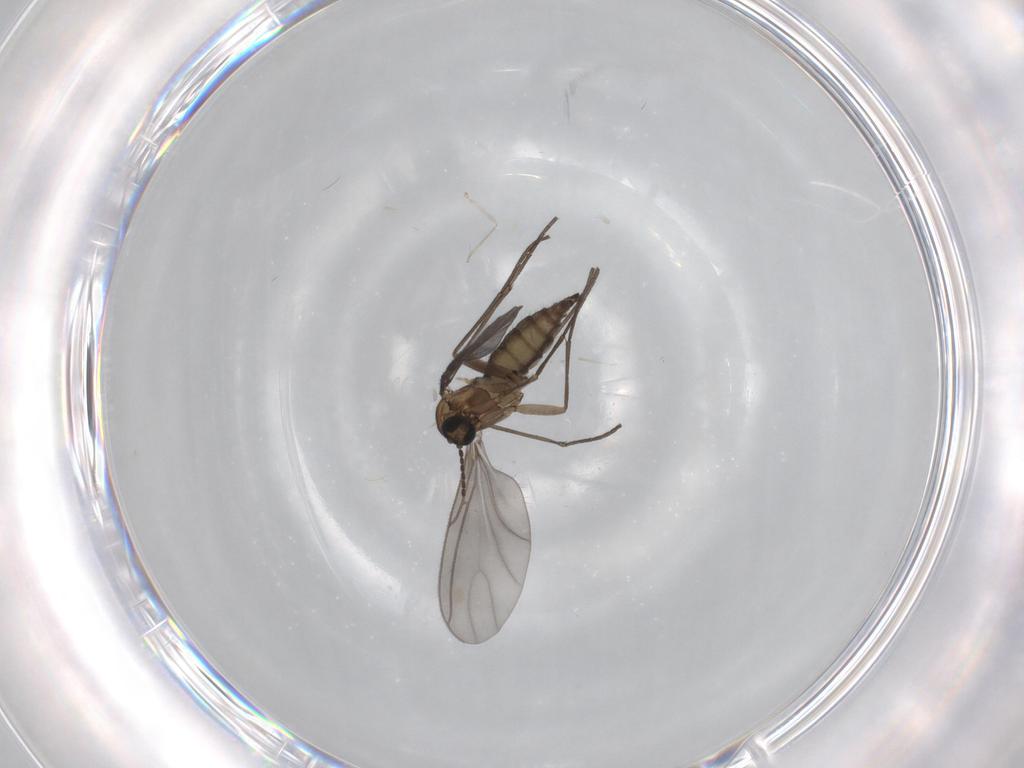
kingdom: Animalia
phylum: Arthropoda
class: Insecta
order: Diptera
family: Sciaridae
